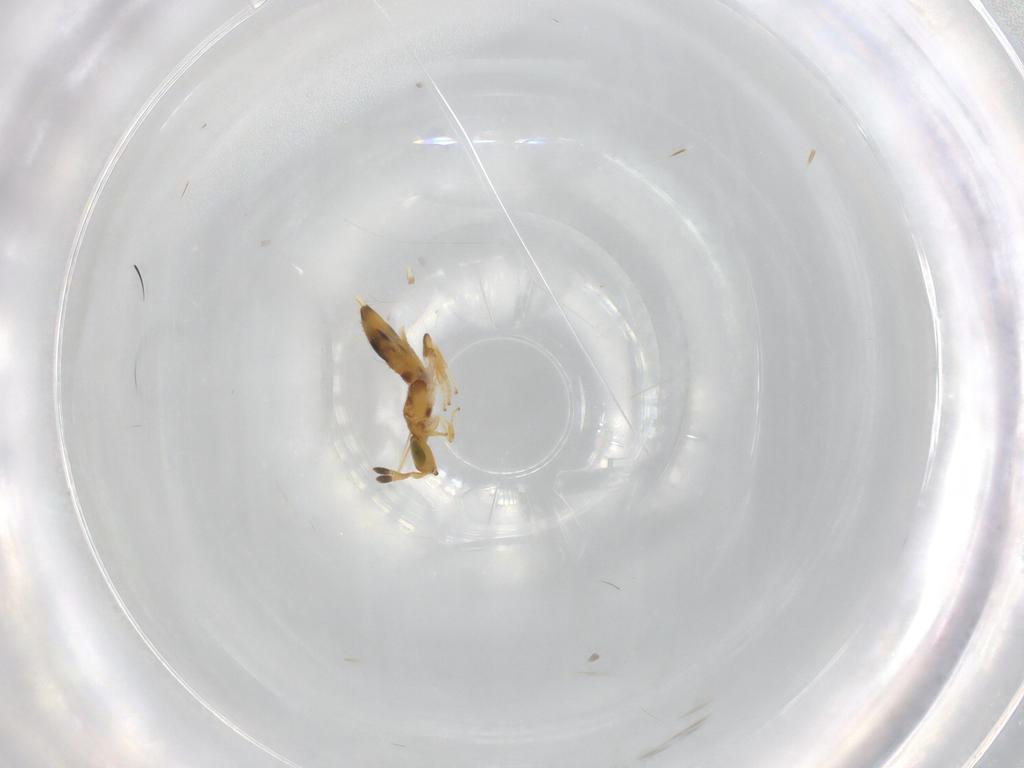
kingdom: Animalia
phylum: Arthropoda
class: Insecta
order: Hymenoptera
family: Encyrtidae
